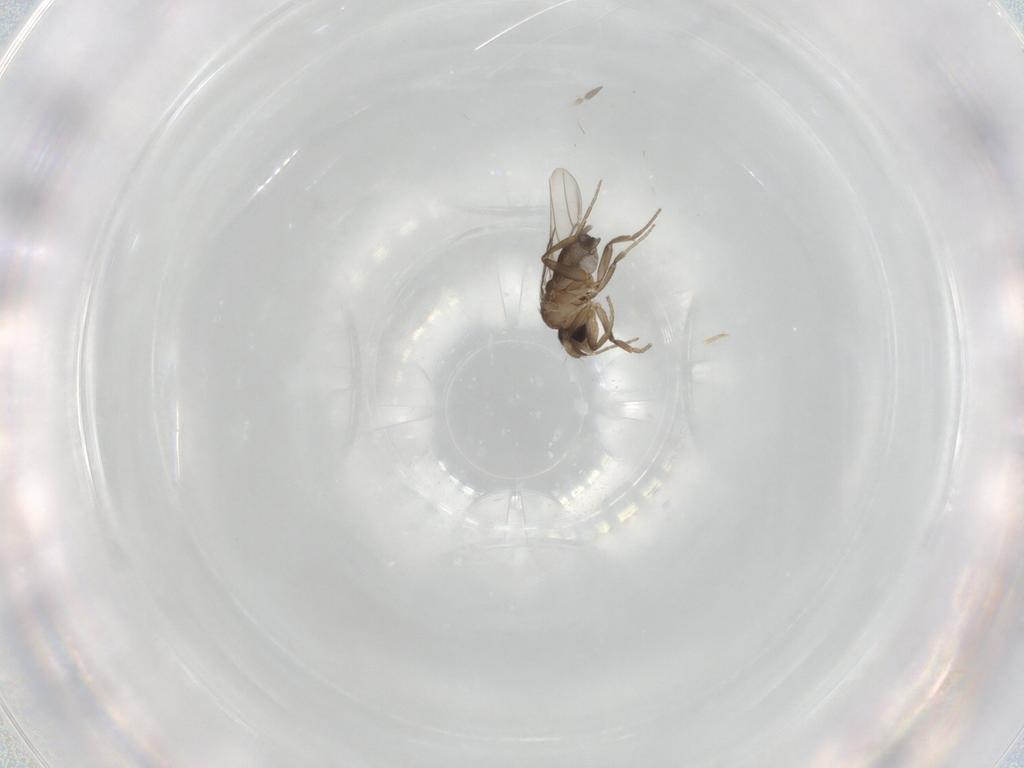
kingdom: Animalia
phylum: Arthropoda
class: Insecta
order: Diptera
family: Phoridae
